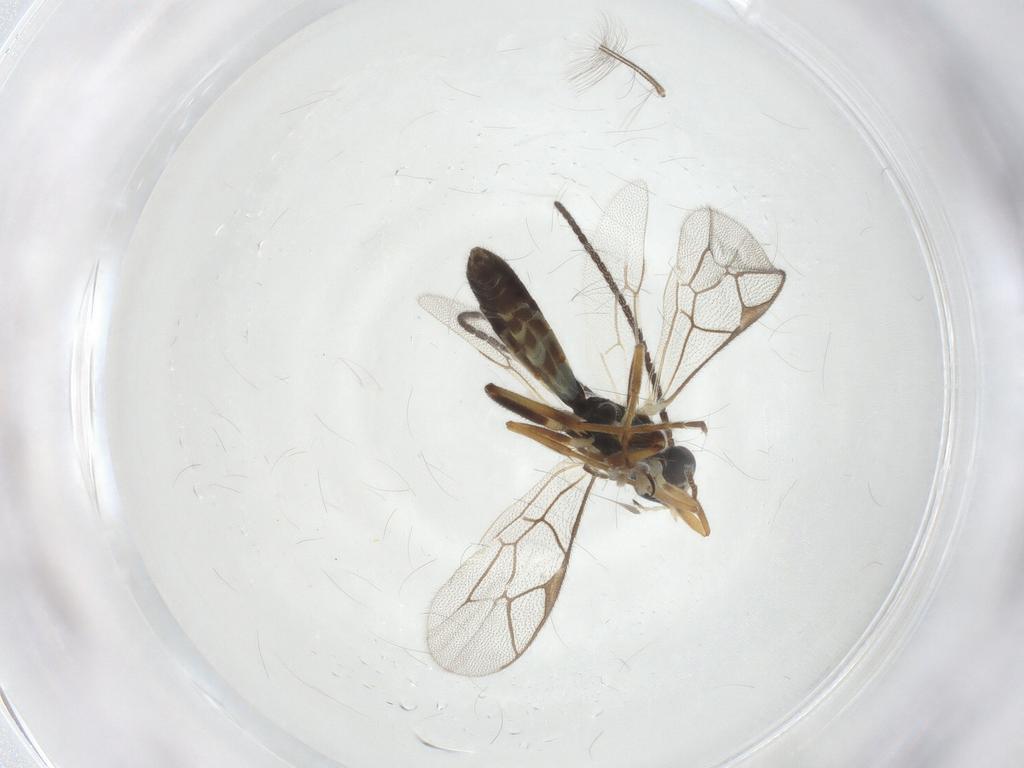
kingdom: Animalia
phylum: Arthropoda
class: Insecta
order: Hymenoptera
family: Ichneumonidae
